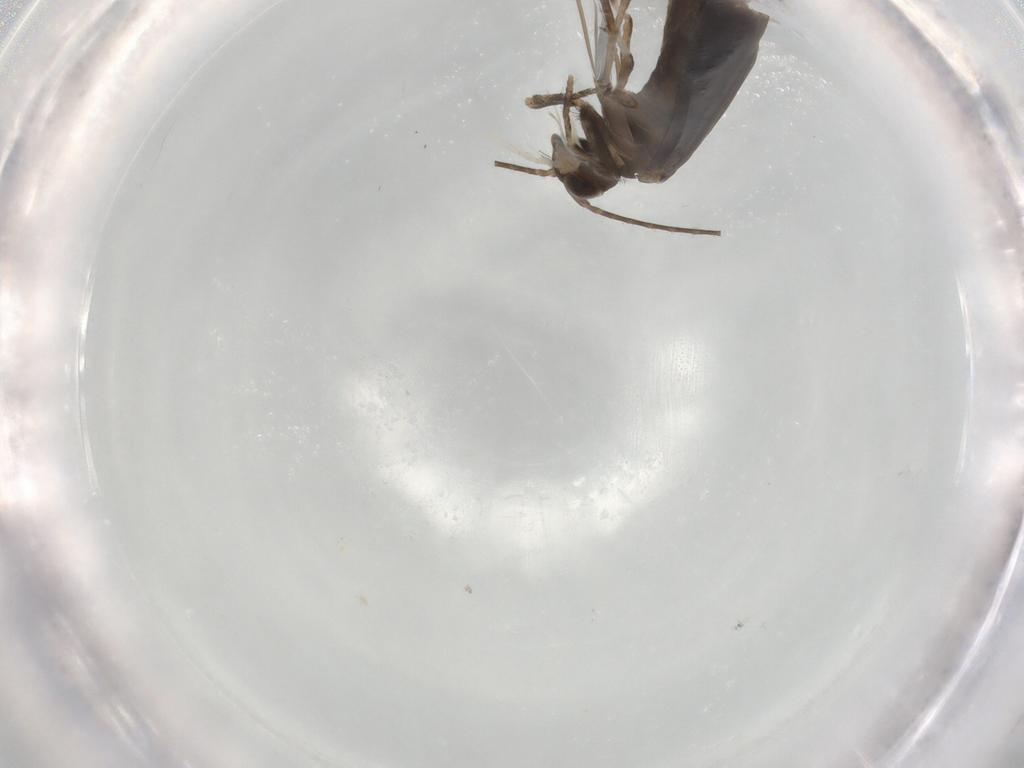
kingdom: Animalia
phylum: Arthropoda
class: Insecta
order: Trichoptera
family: Xiphocentronidae
